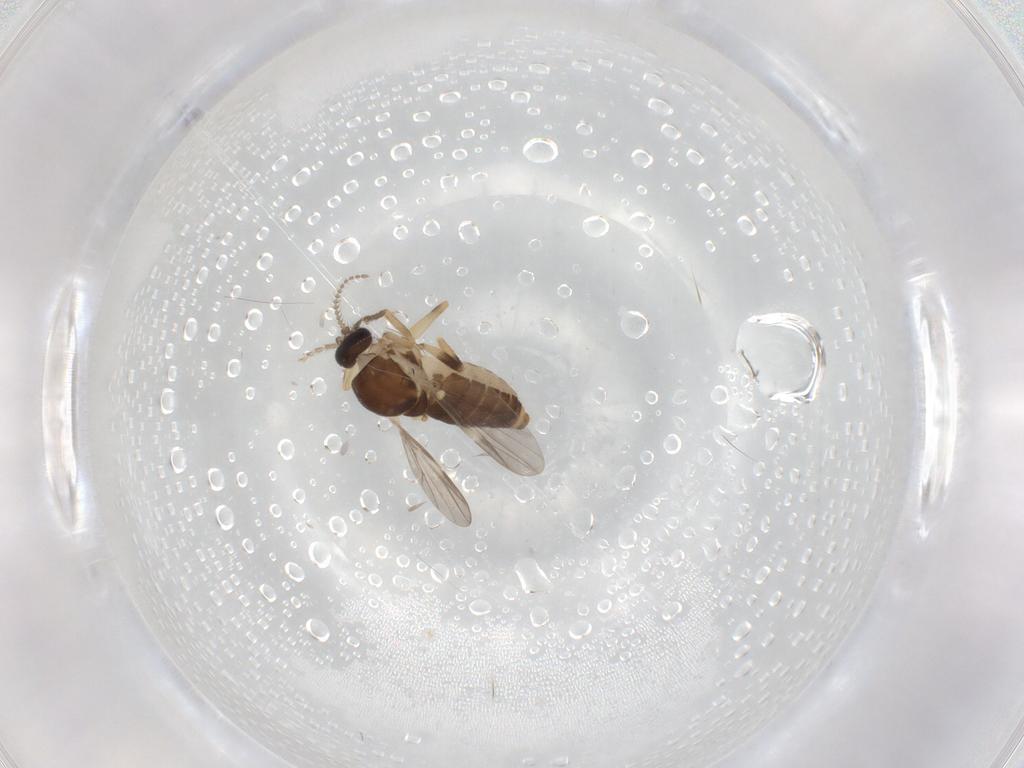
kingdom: Animalia
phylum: Arthropoda
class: Insecta
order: Diptera
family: Ceratopogonidae
